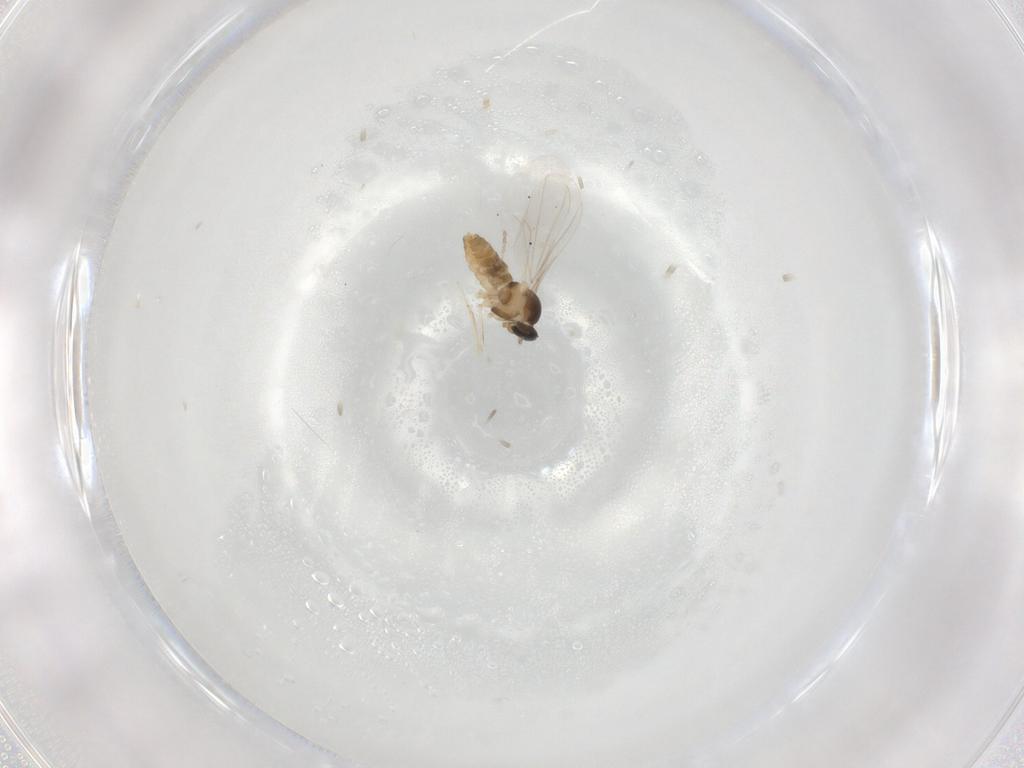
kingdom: Animalia
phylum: Arthropoda
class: Insecta
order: Diptera
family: Cecidomyiidae
